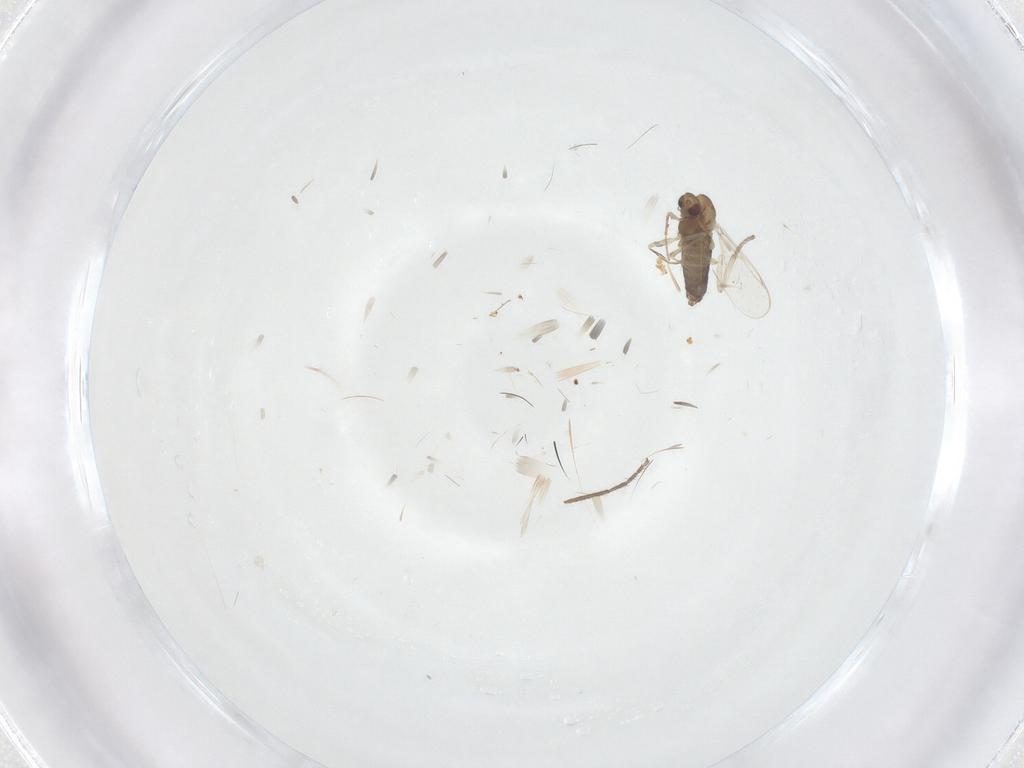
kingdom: Animalia
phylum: Arthropoda
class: Insecta
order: Diptera
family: Chironomidae
